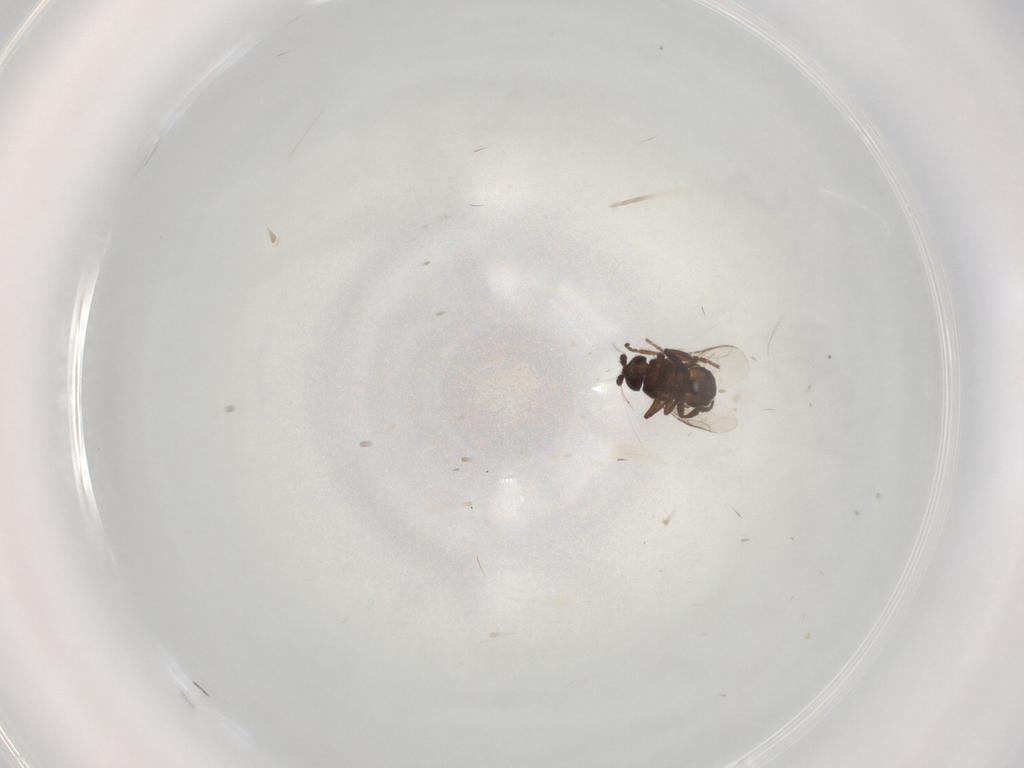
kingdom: Animalia
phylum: Arthropoda
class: Insecta
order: Diptera
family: Sphaeroceridae
